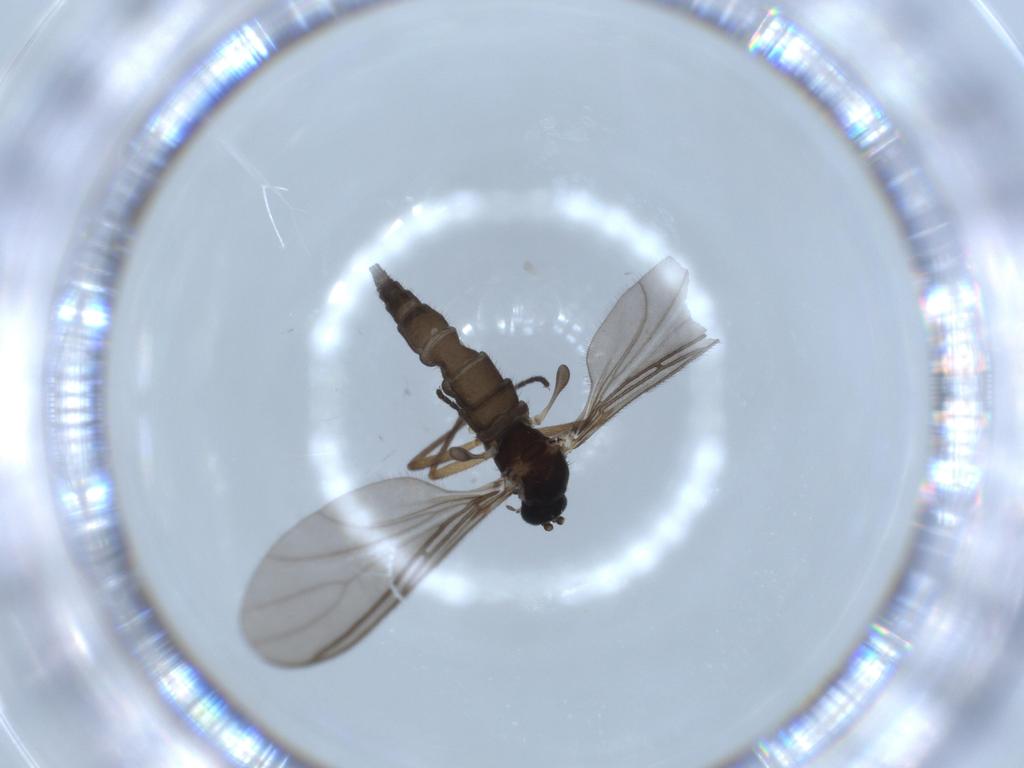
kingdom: Animalia
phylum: Arthropoda
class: Insecta
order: Diptera
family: Sciaridae
